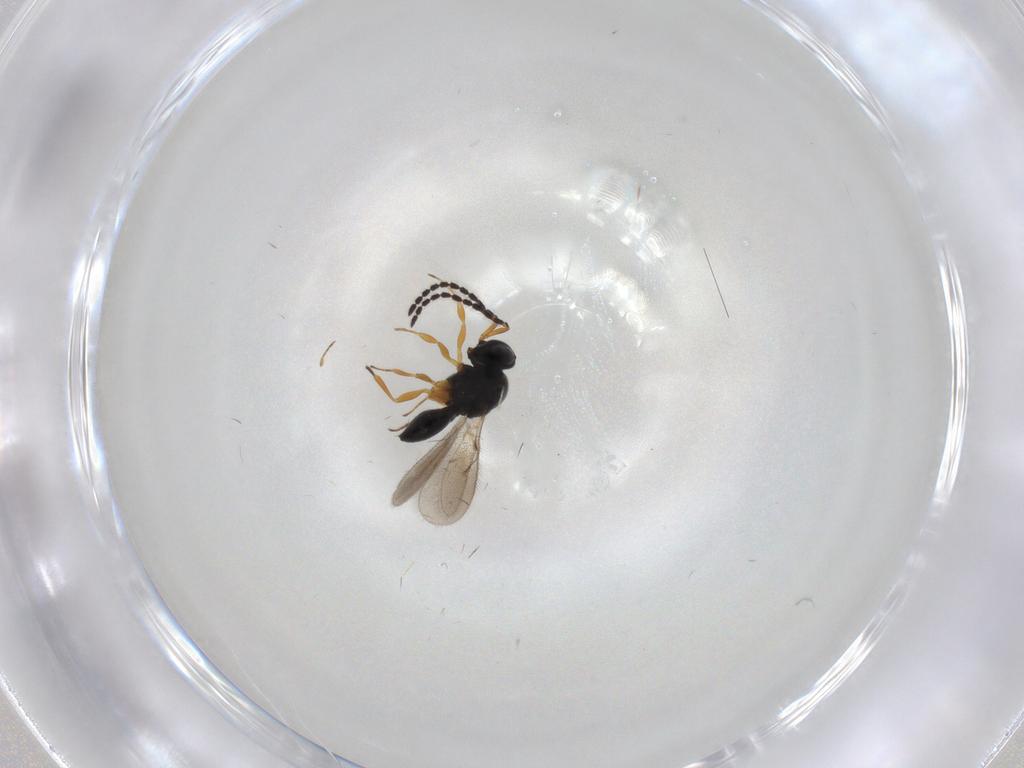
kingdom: Animalia
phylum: Arthropoda
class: Insecta
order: Hymenoptera
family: Scelionidae
